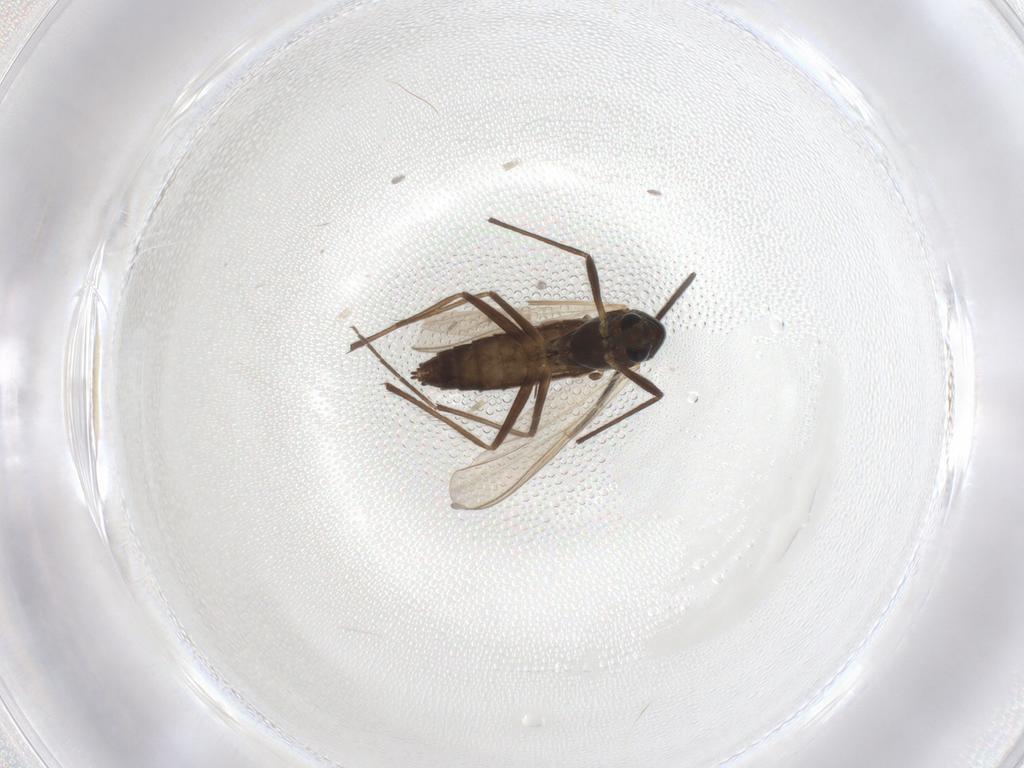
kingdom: Animalia
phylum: Arthropoda
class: Insecta
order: Diptera
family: Chironomidae
